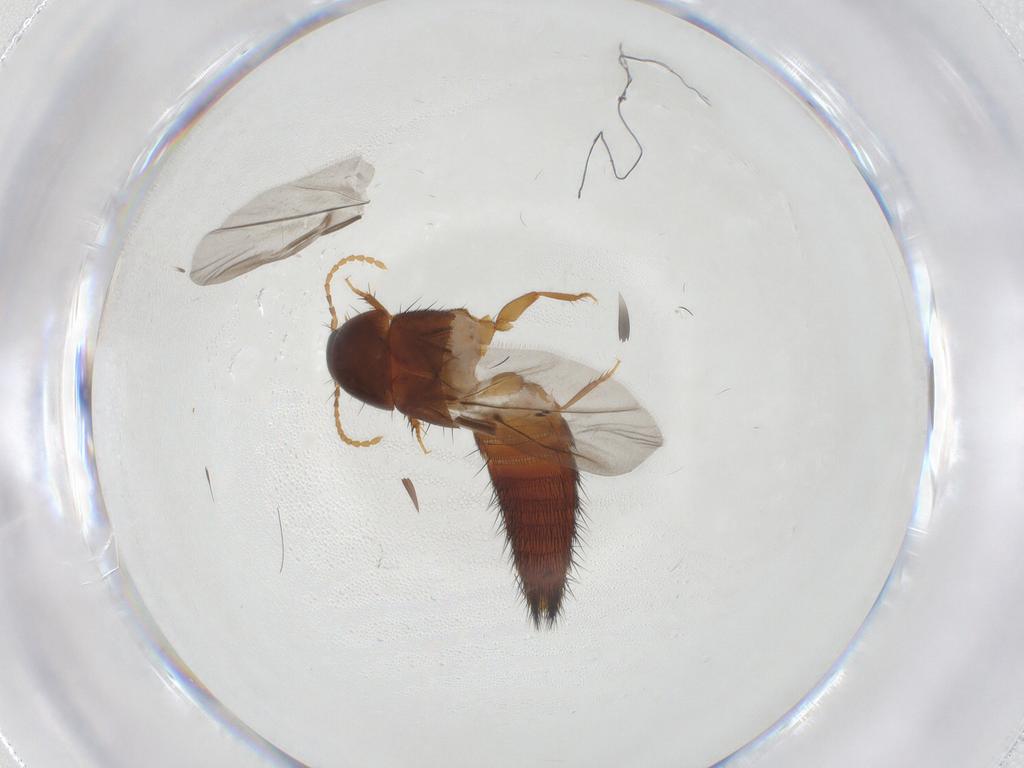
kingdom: Animalia
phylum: Arthropoda
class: Insecta
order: Coleoptera
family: Staphylinidae
